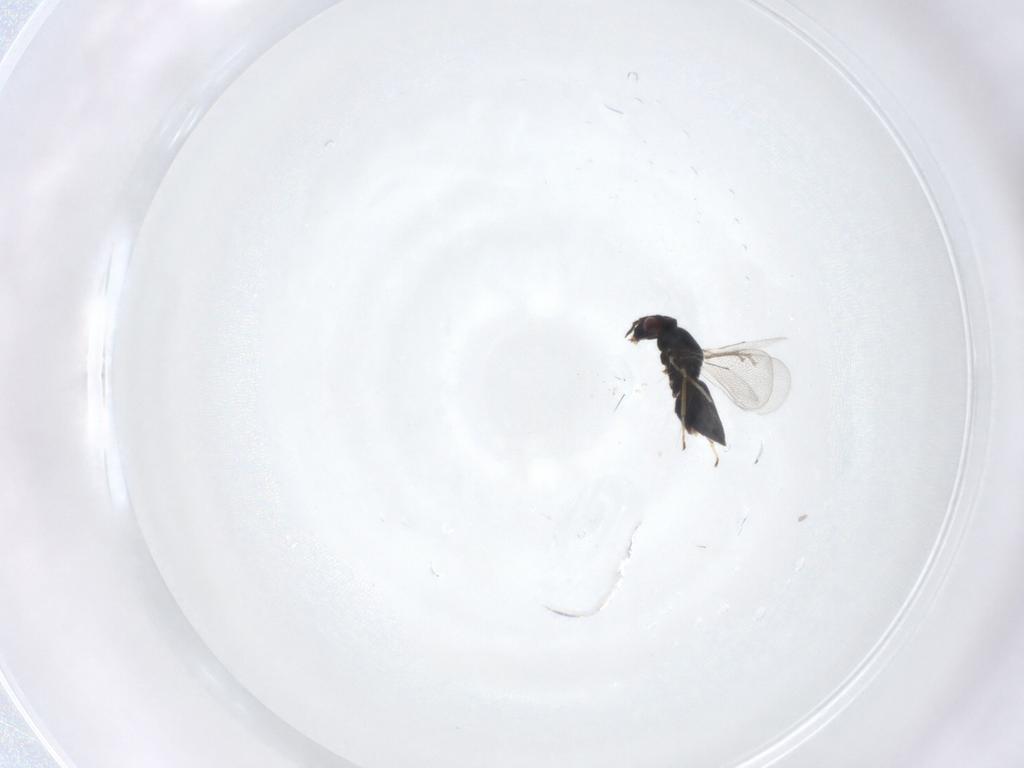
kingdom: Animalia
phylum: Arthropoda
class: Insecta
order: Hymenoptera
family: Eulophidae
